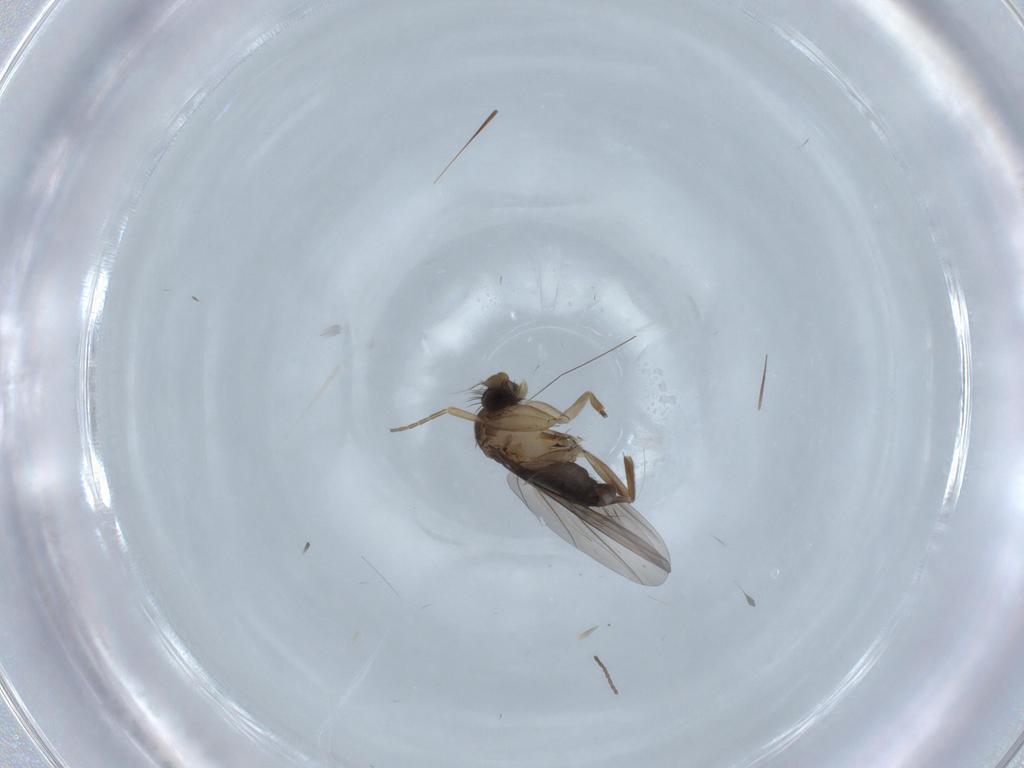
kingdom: Animalia
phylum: Arthropoda
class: Insecta
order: Diptera
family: Phoridae
